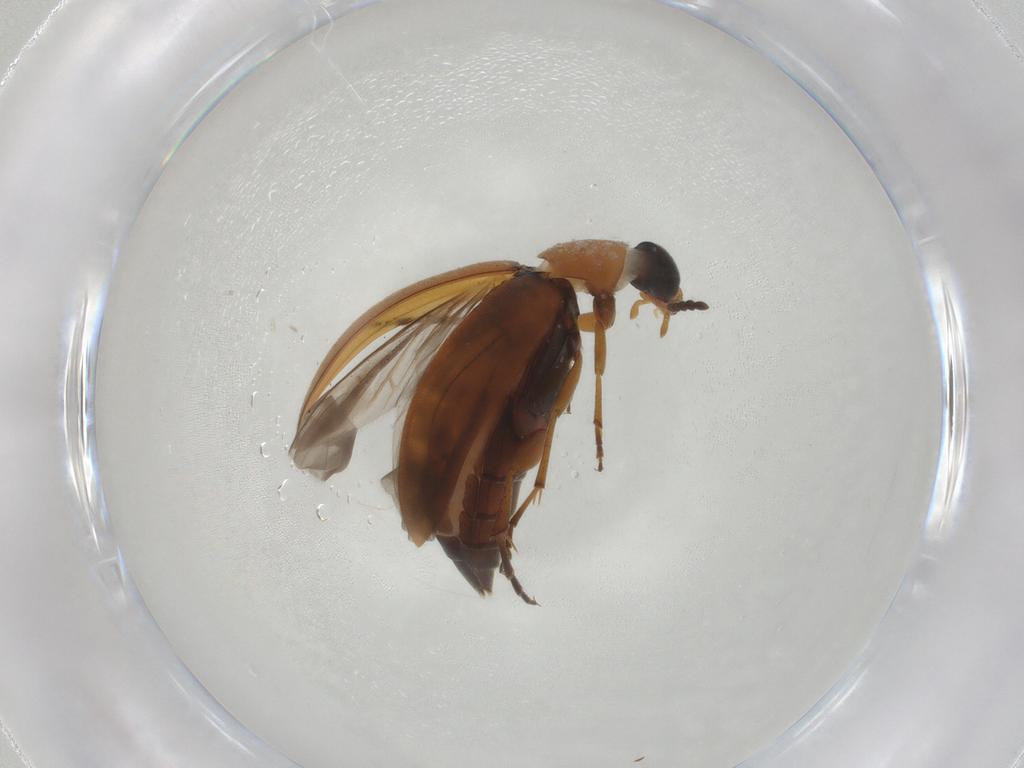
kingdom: Animalia
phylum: Arthropoda
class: Insecta
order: Coleoptera
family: Scraptiidae
